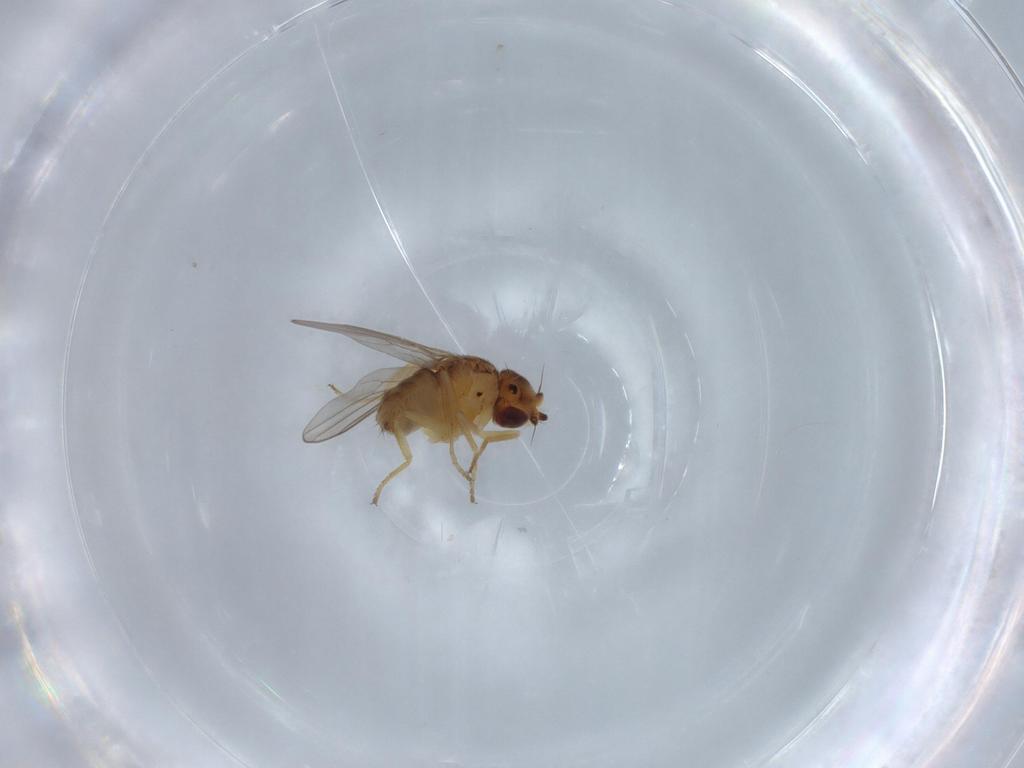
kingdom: Animalia
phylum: Arthropoda
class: Insecta
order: Diptera
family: Chloropidae
